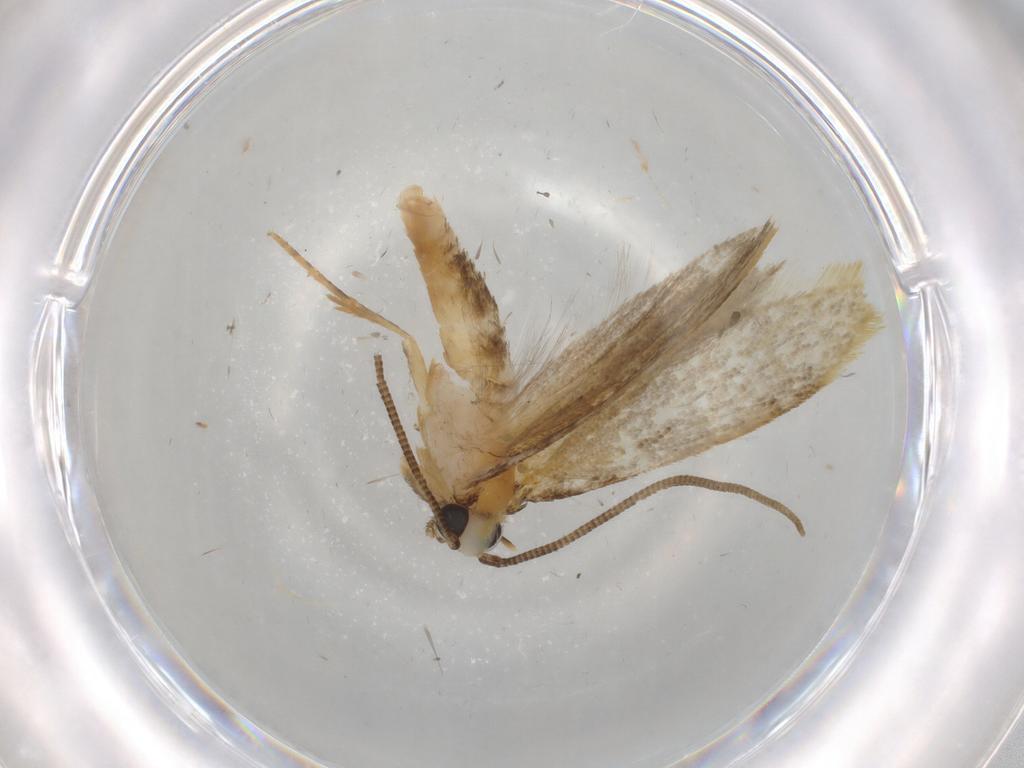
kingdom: Animalia
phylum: Arthropoda
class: Insecta
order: Lepidoptera
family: Tineidae
